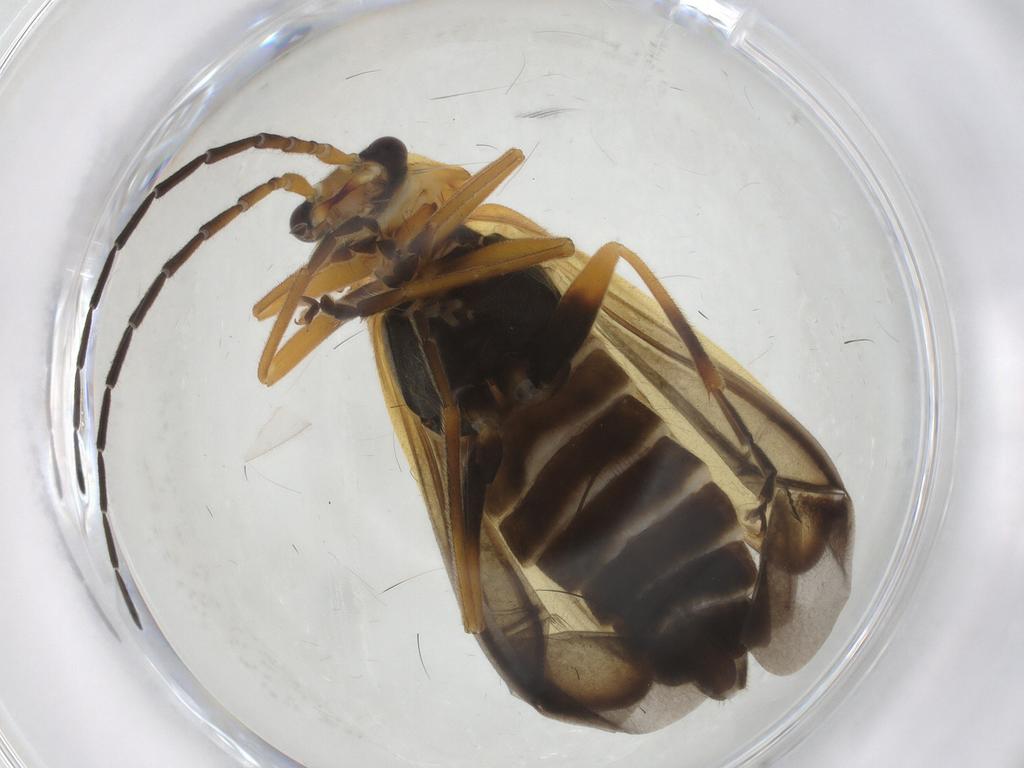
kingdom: Animalia
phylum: Arthropoda
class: Insecta
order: Coleoptera
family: Cantharidae
